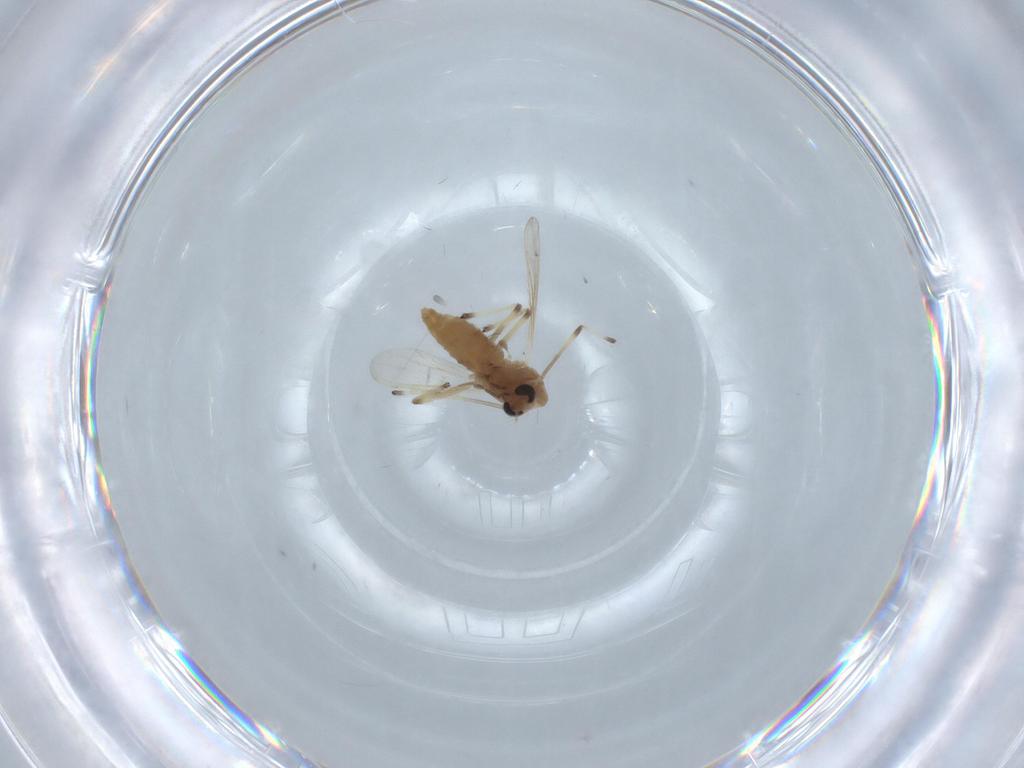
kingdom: Animalia
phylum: Arthropoda
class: Insecta
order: Diptera
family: Chironomidae
